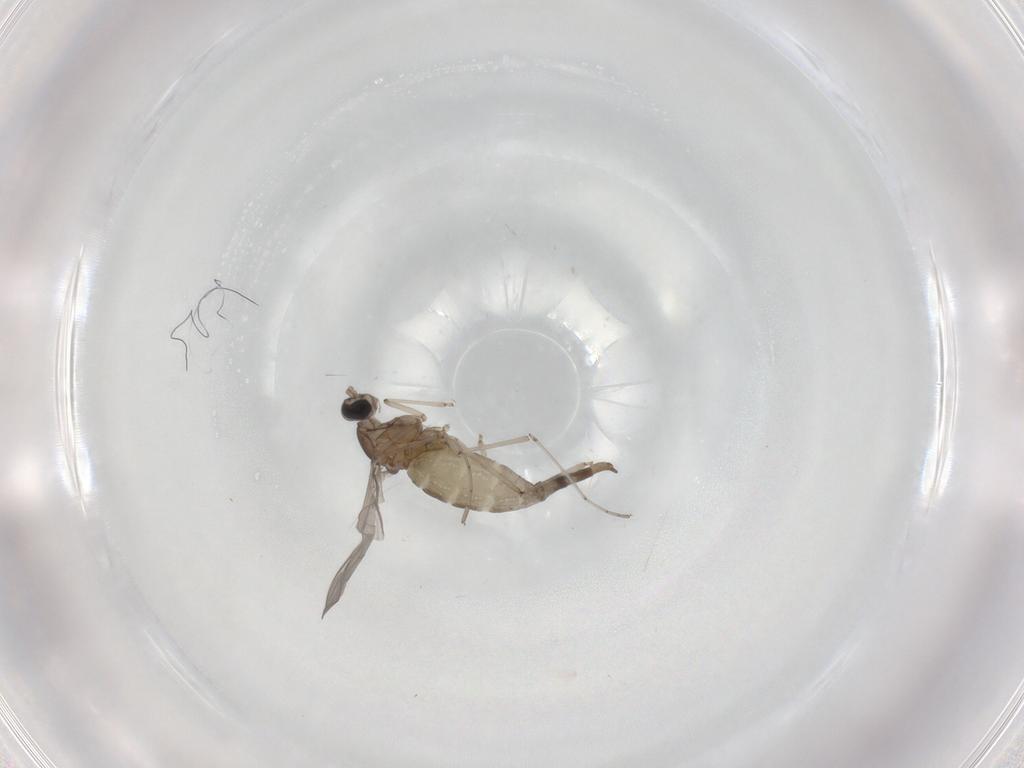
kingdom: Animalia
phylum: Arthropoda
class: Insecta
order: Diptera
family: Cecidomyiidae
